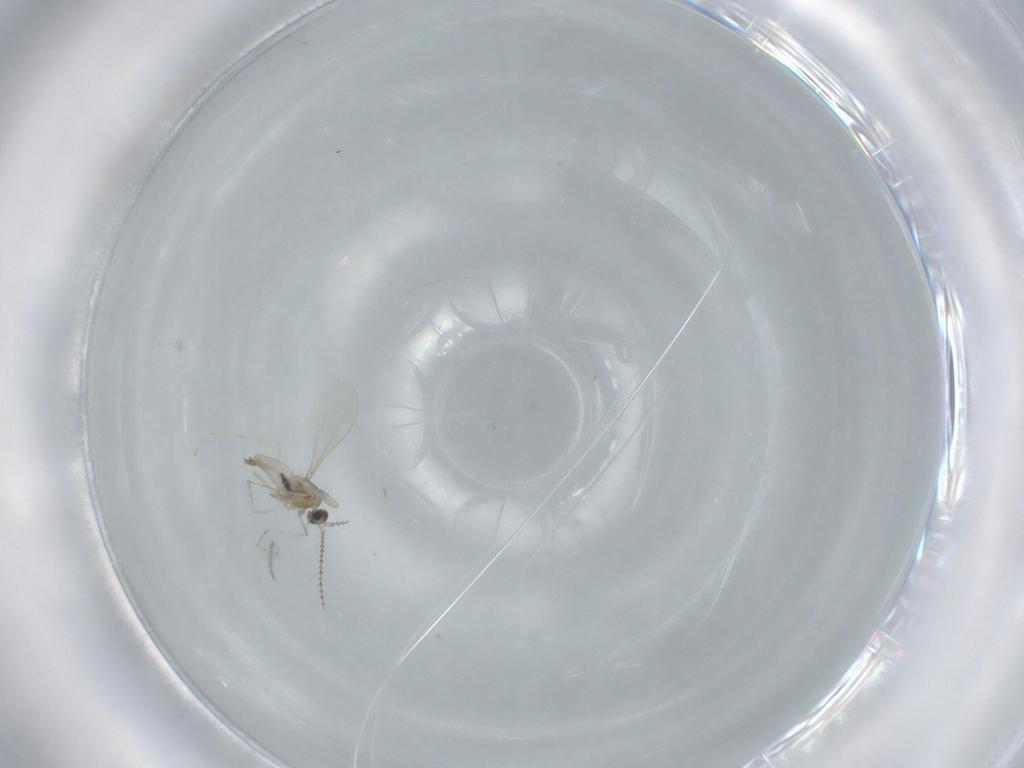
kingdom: Animalia
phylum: Arthropoda
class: Insecta
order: Diptera
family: Cecidomyiidae
